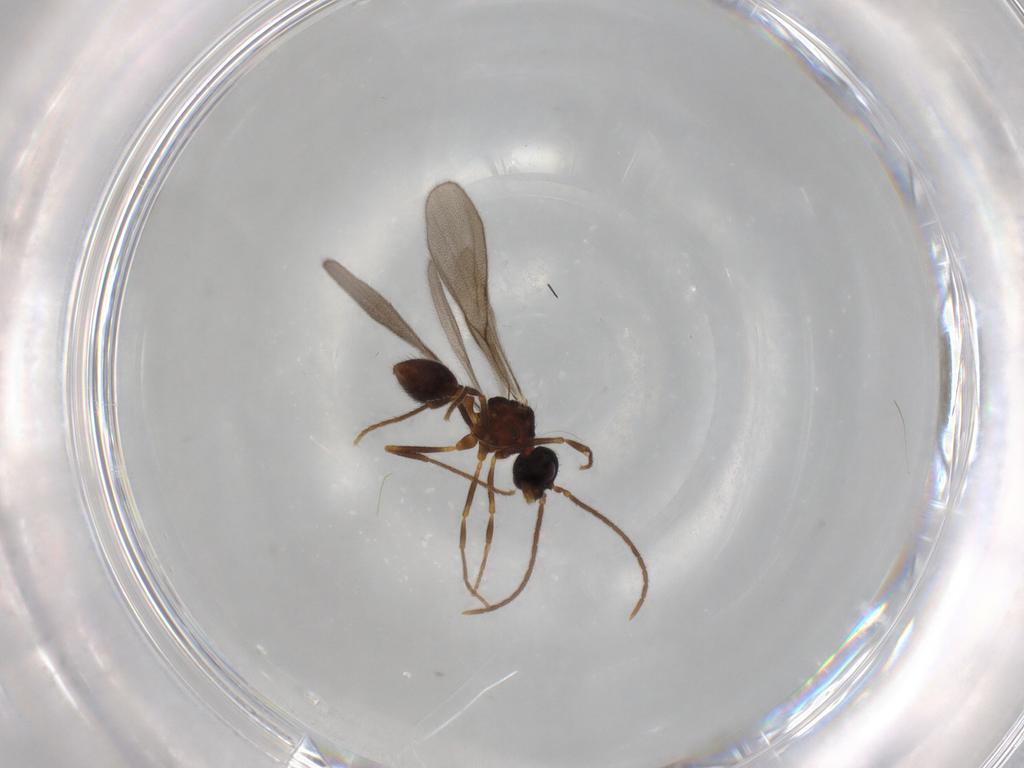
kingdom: Animalia
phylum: Arthropoda
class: Insecta
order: Hymenoptera
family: Formicidae
